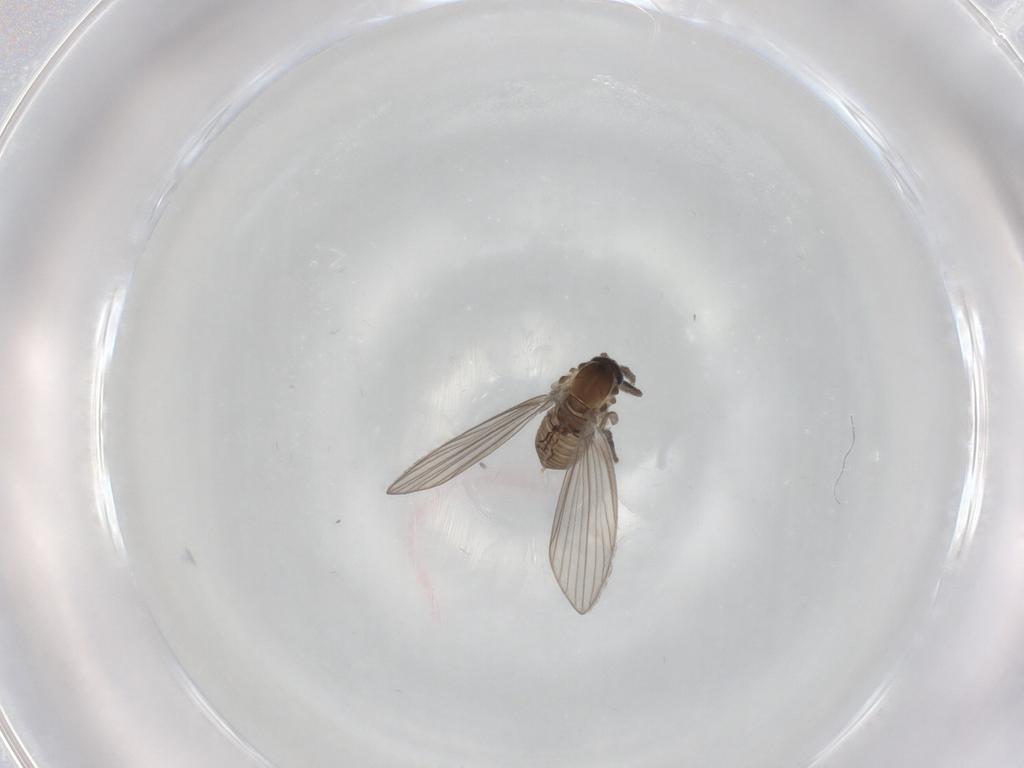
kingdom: Animalia
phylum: Arthropoda
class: Insecta
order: Diptera
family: Psychodidae
